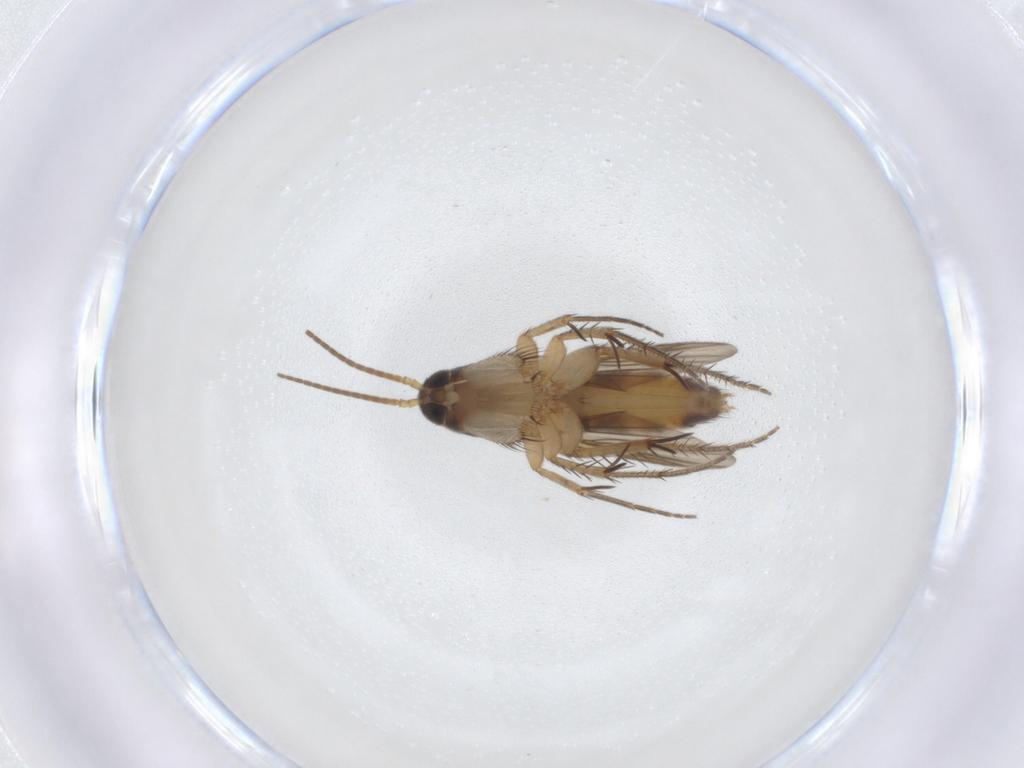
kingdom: Animalia
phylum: Arthropoda
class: Insecta
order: Diptera
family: Mycetophilidae
